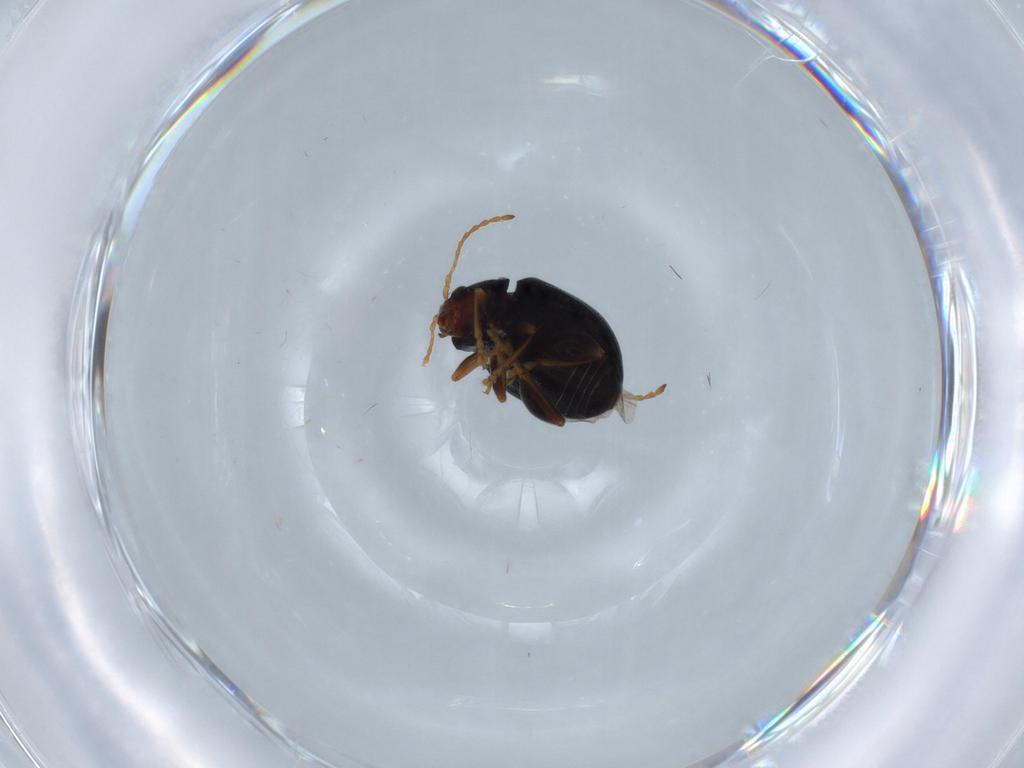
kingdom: Animalia
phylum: Arthropoda
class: Insecta
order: Coleoptera
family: Chrysomelidae
